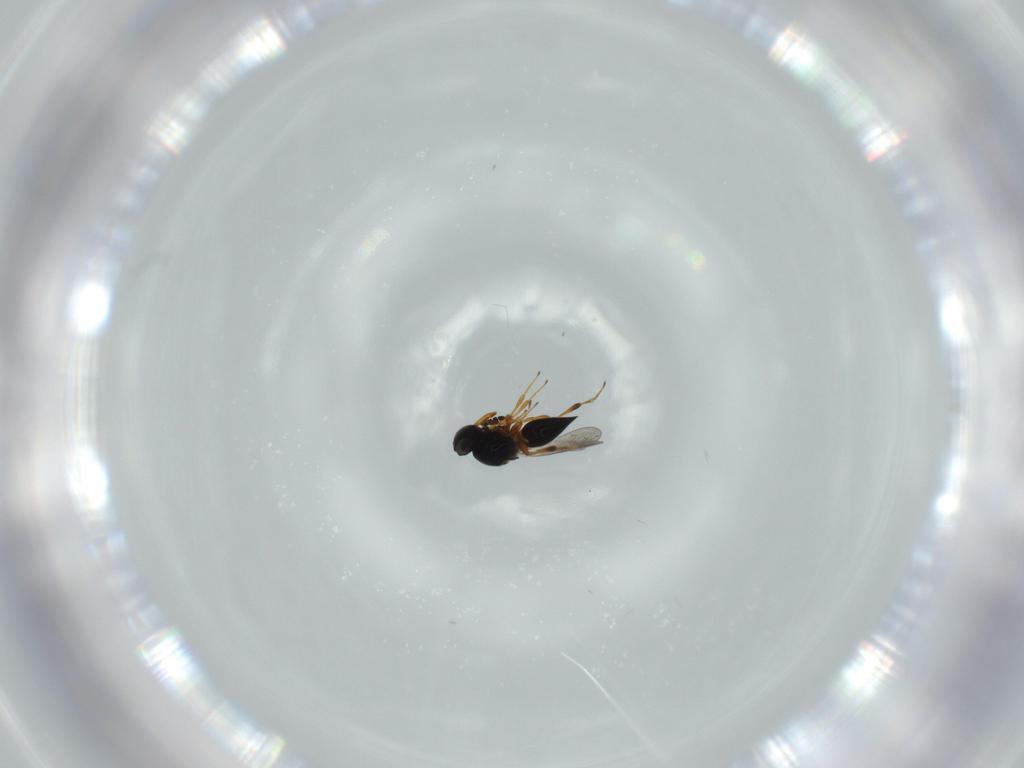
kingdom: Animalia
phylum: Arthropoda
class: Insecta
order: Hymenoptera
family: Platygastridae
